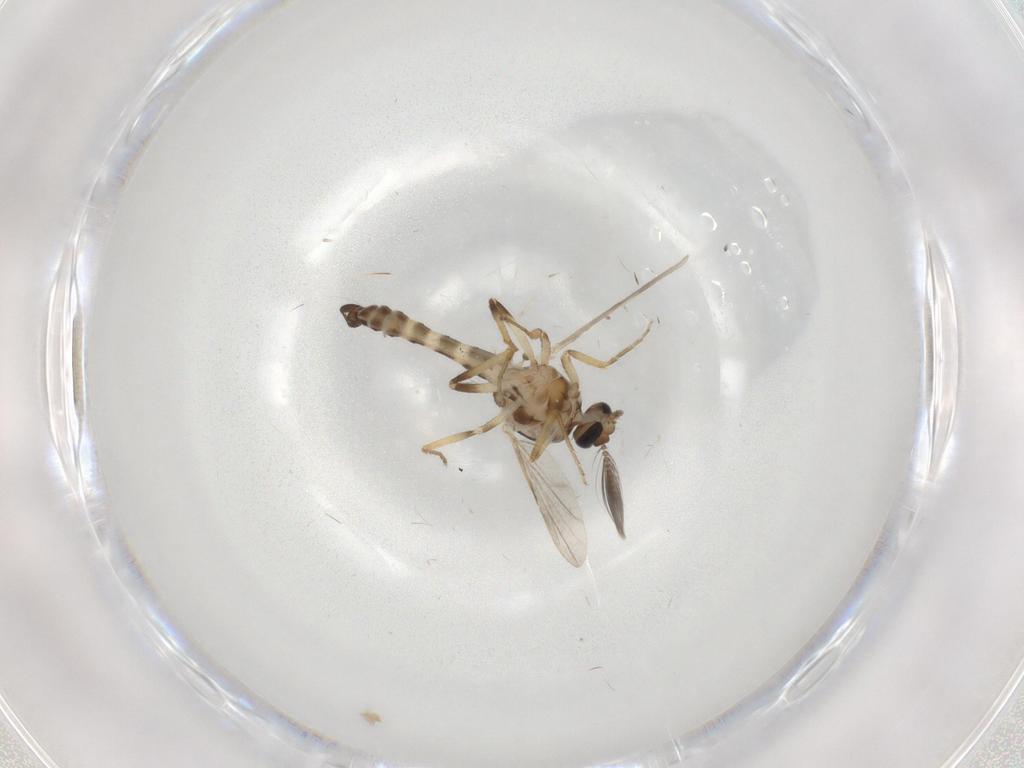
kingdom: Animalia
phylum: Arthropoda
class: Insecta
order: Diptera
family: Ceratopogonidae
